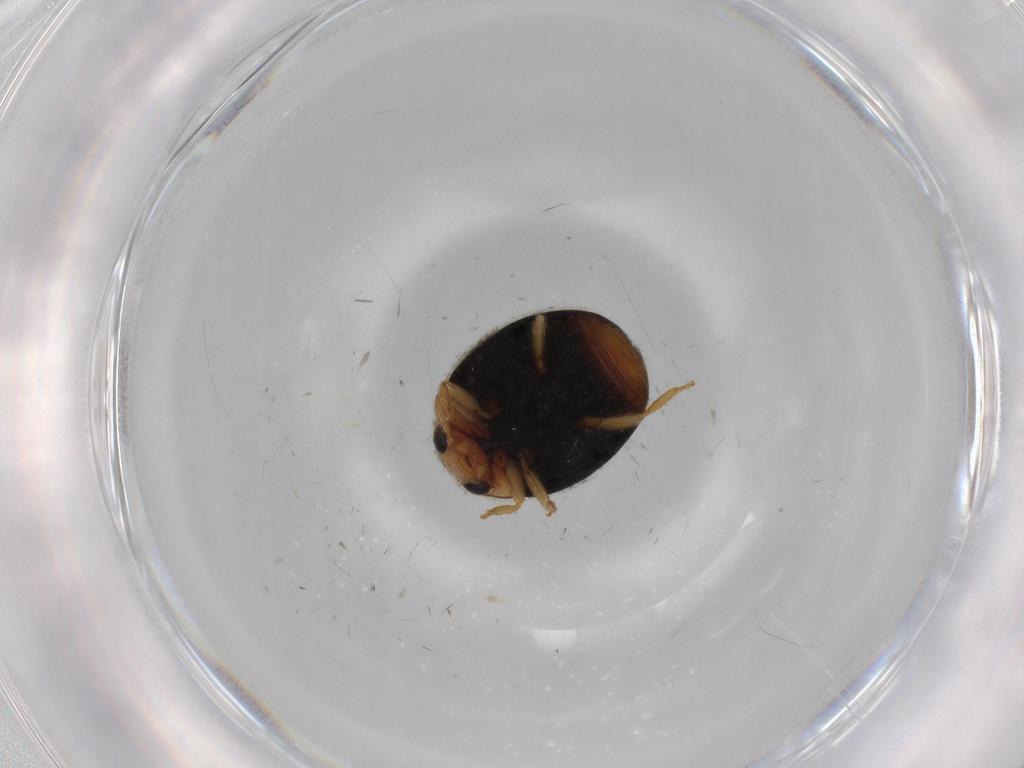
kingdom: Animalia
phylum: Arthropoda
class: Insecta
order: Coleoptera
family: Coccinellidae
